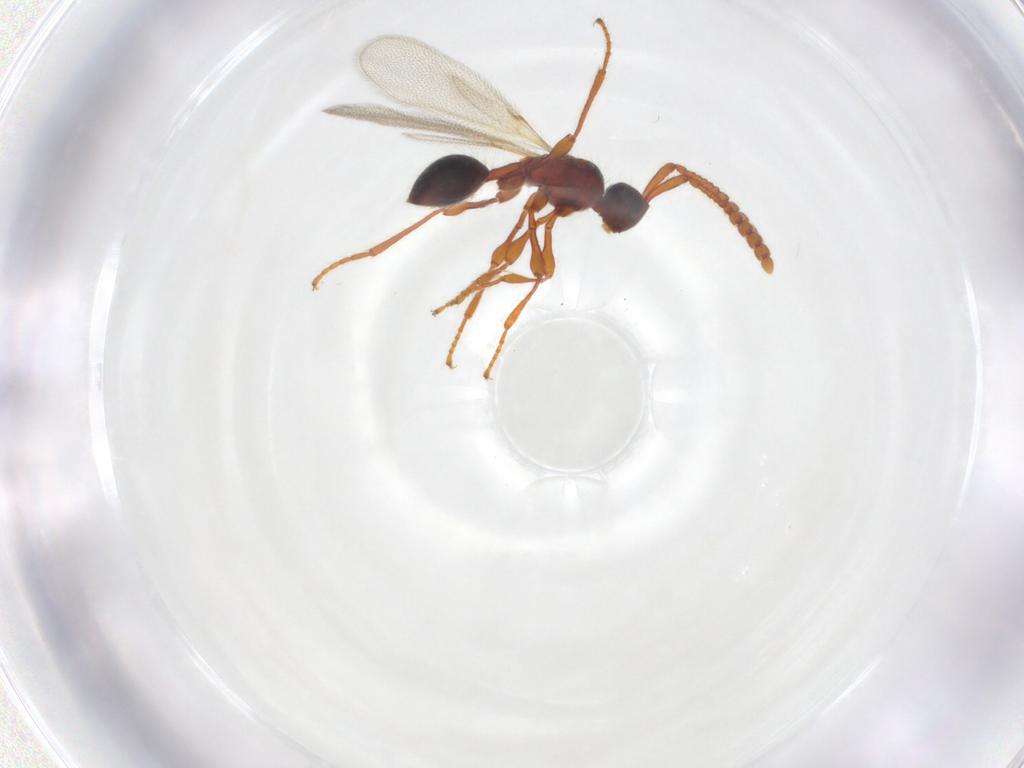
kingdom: Animalia
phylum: Arthropoda
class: Insecta
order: Hymenoptera
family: Diapriidae
